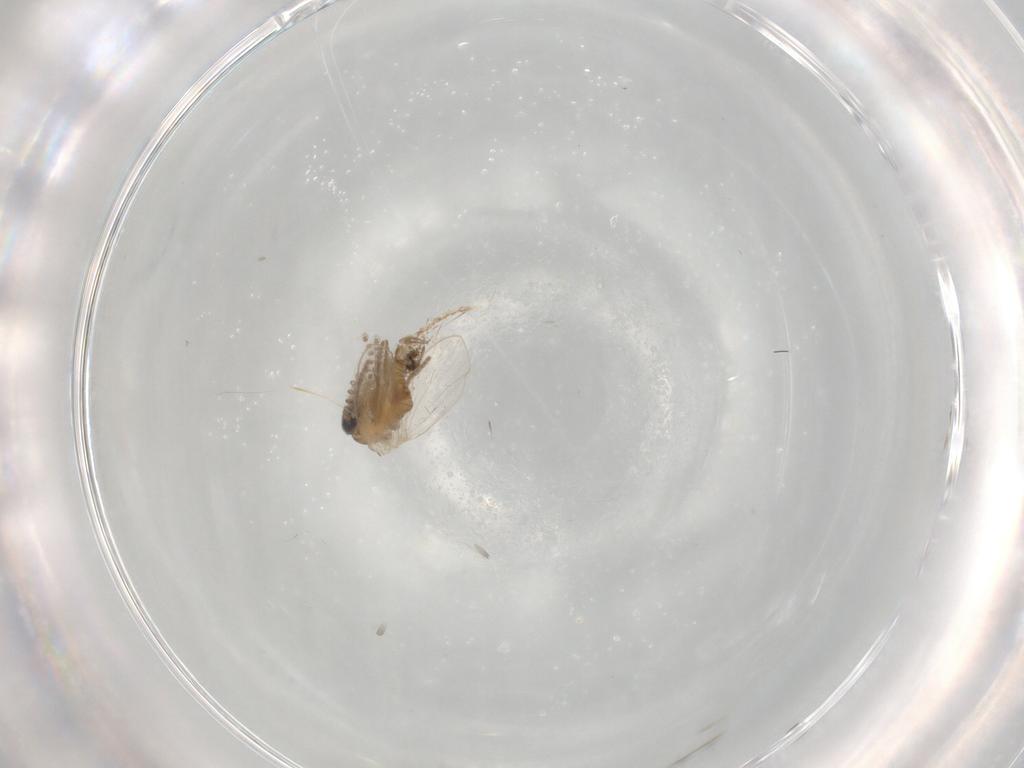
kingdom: Animalia
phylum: Arthropoda
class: Insecta
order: Diptera
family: Psychodidae
